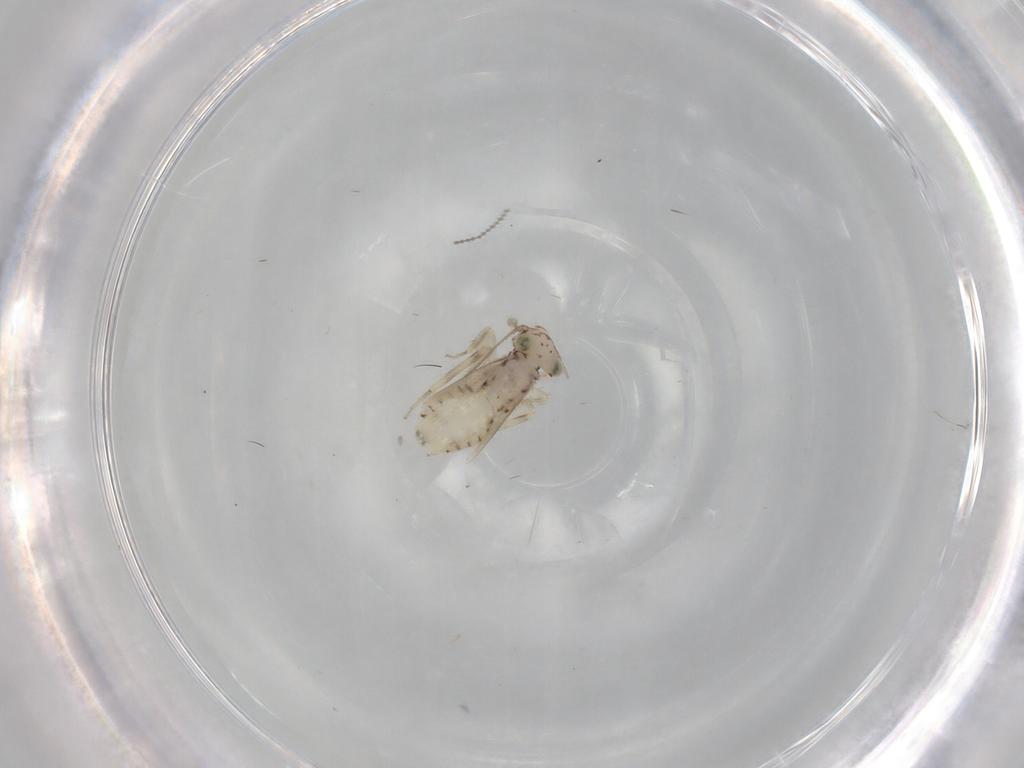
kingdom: Animalia
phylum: Arthropoda
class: Insecta
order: Psocodea
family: Lepidopsocidae
